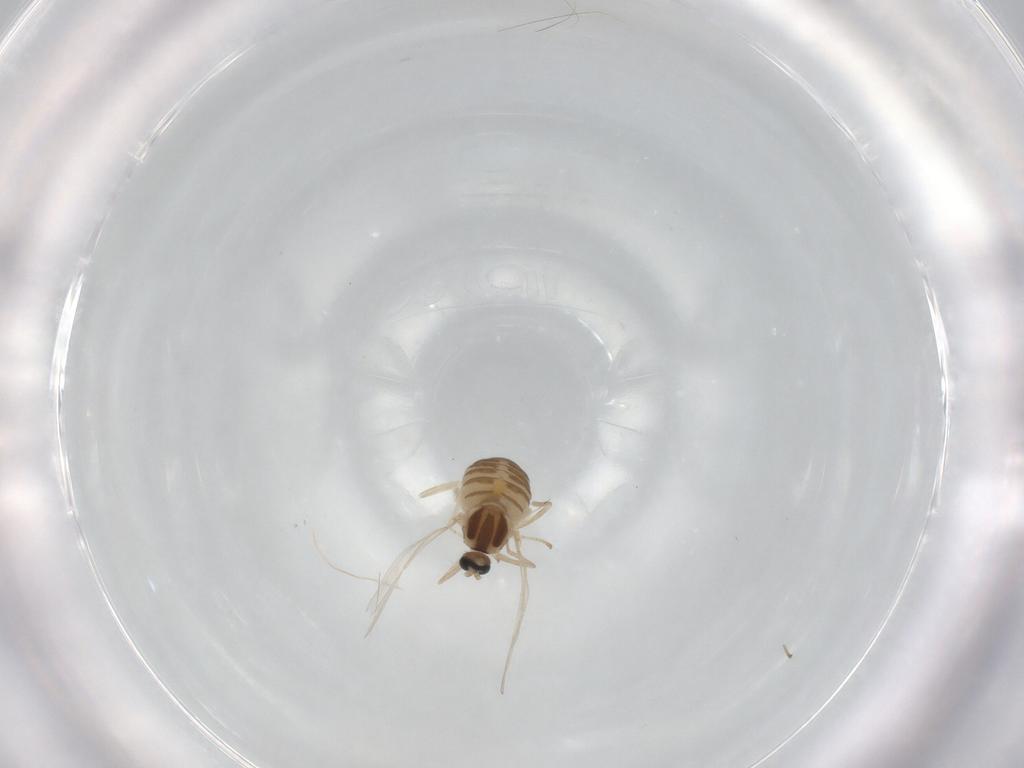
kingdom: Animalia
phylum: Arthropoda
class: Insecta
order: Diptera
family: Cecidomyiidae
